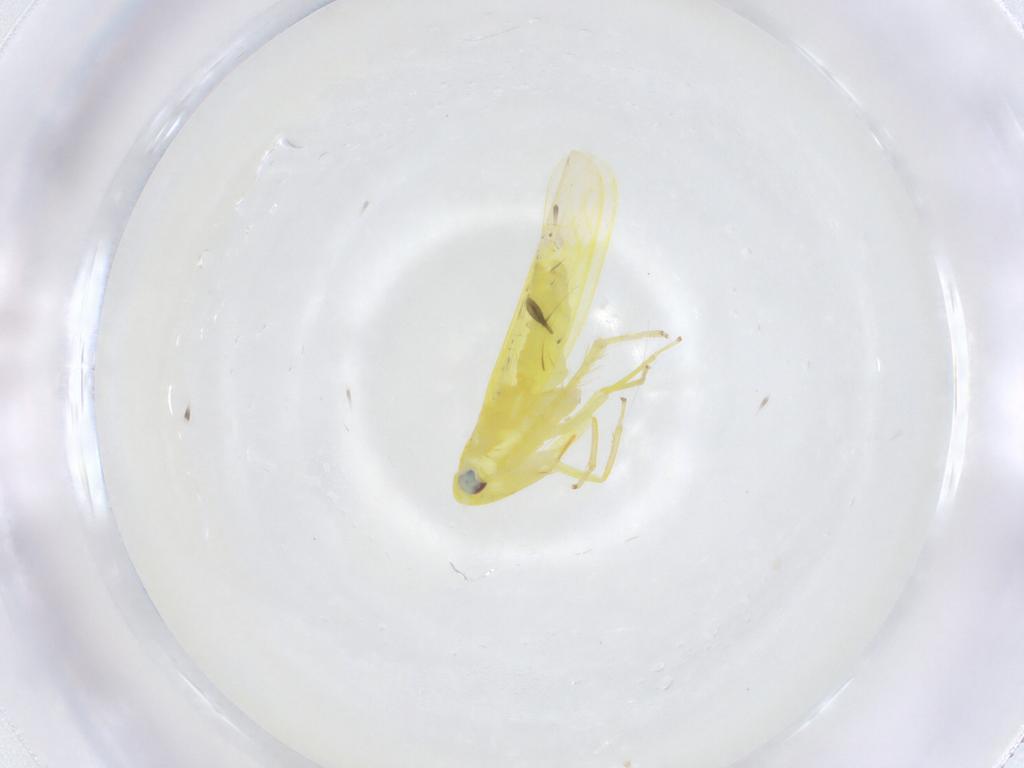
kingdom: Animalia
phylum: Arthropoda
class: Insecta
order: Hemiptera
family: Cicadellidae
